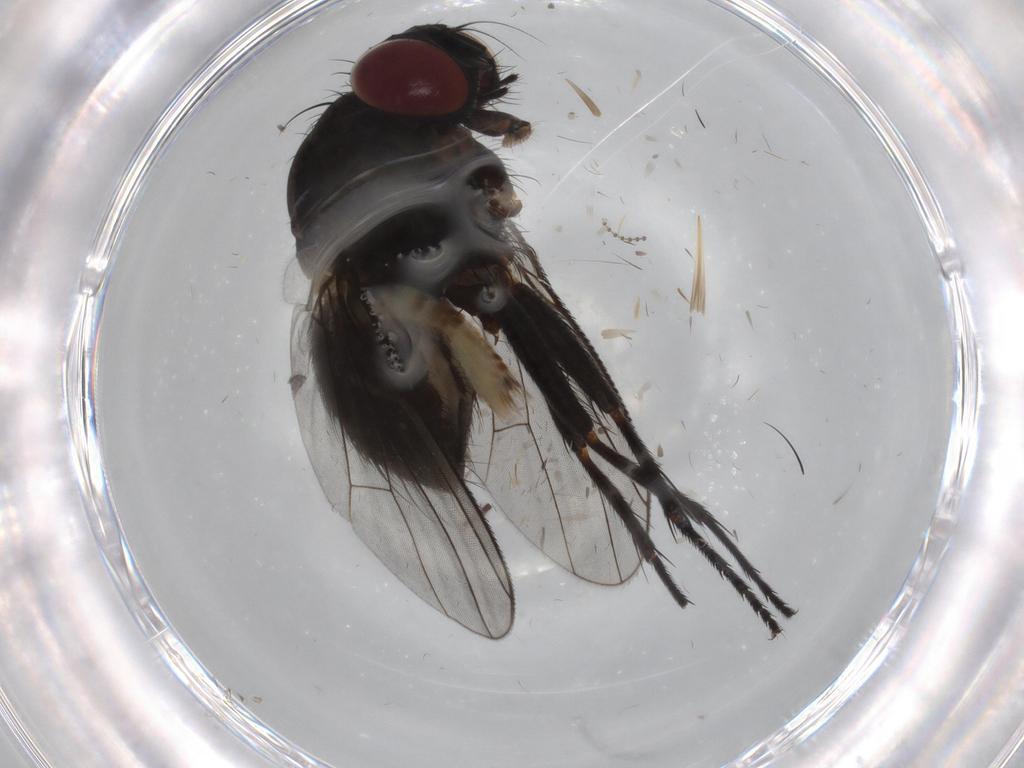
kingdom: Animalia
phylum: Arthropoda
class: Insecta
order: Diptera
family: Muscidae
